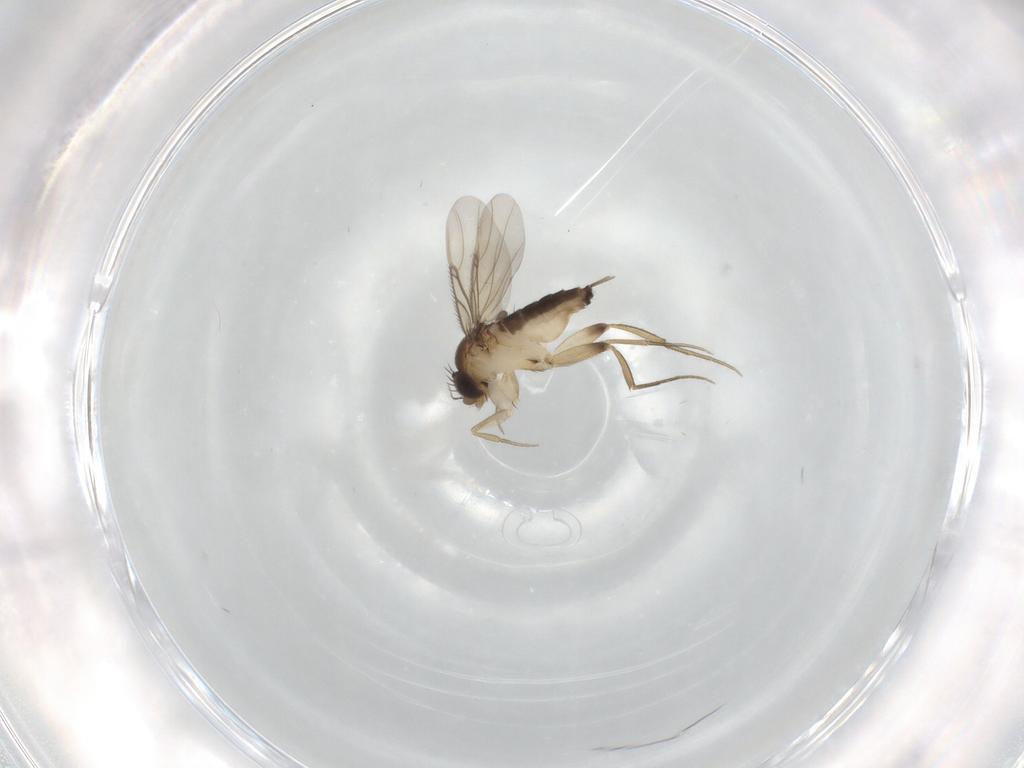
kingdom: Animalia
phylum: Arthropoda
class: Insecta
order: Diptera
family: Phoridae
